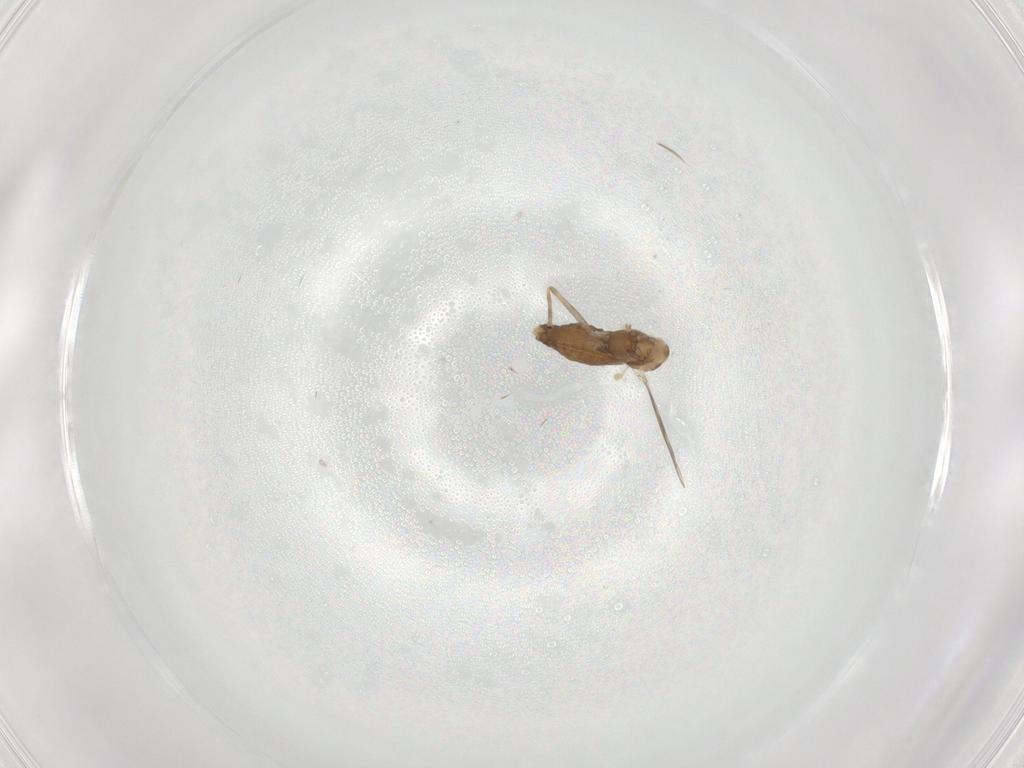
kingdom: Animalia
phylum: Arthropoda
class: Insecta
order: Diptera
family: Chironomidae
